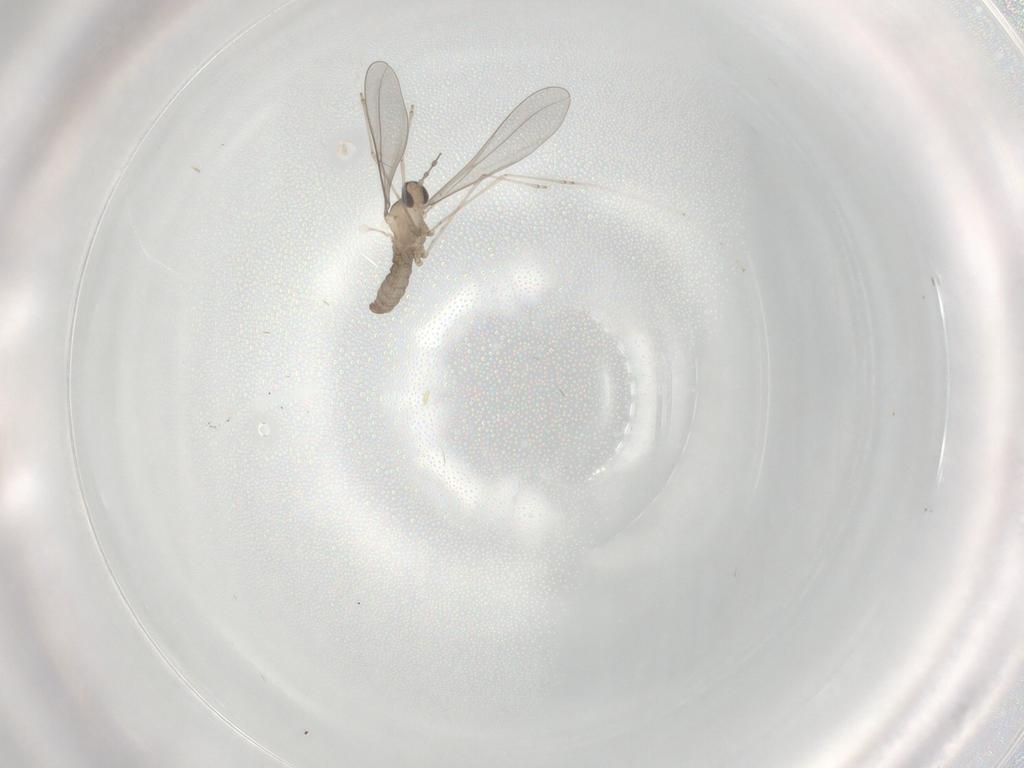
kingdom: Animalia
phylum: Arthropoda
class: Insecta
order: Diptera
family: Cecidomyiidae
